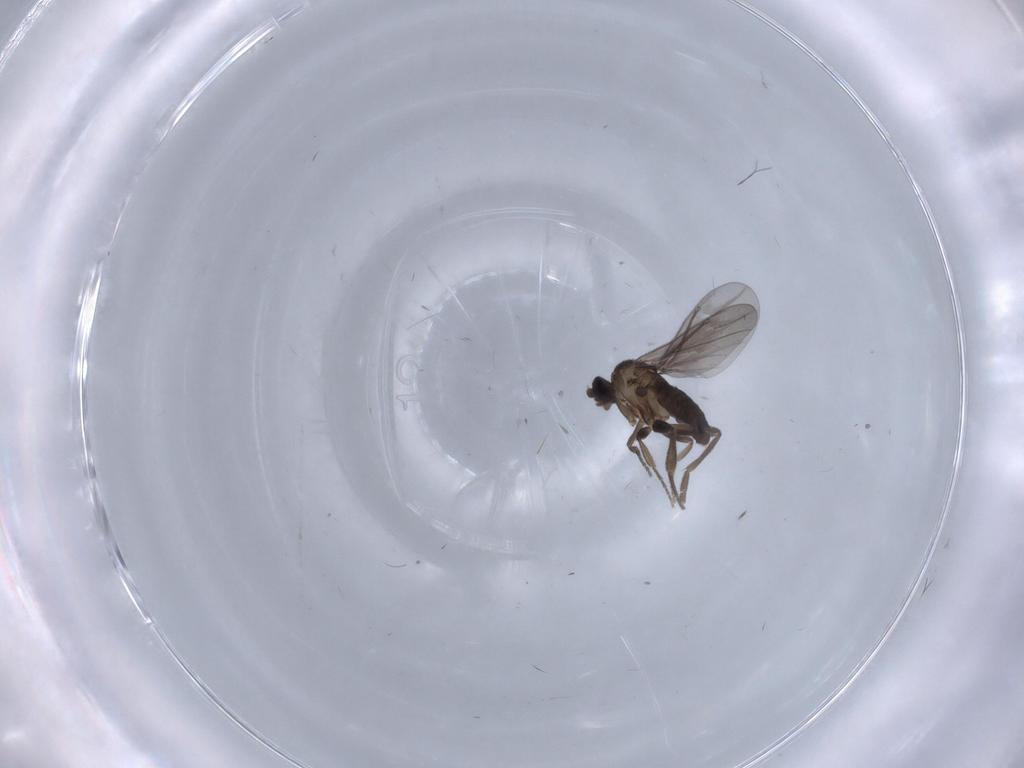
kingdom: Animalia
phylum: Arthropoda
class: Insecta
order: Diptera
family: Phoridae
